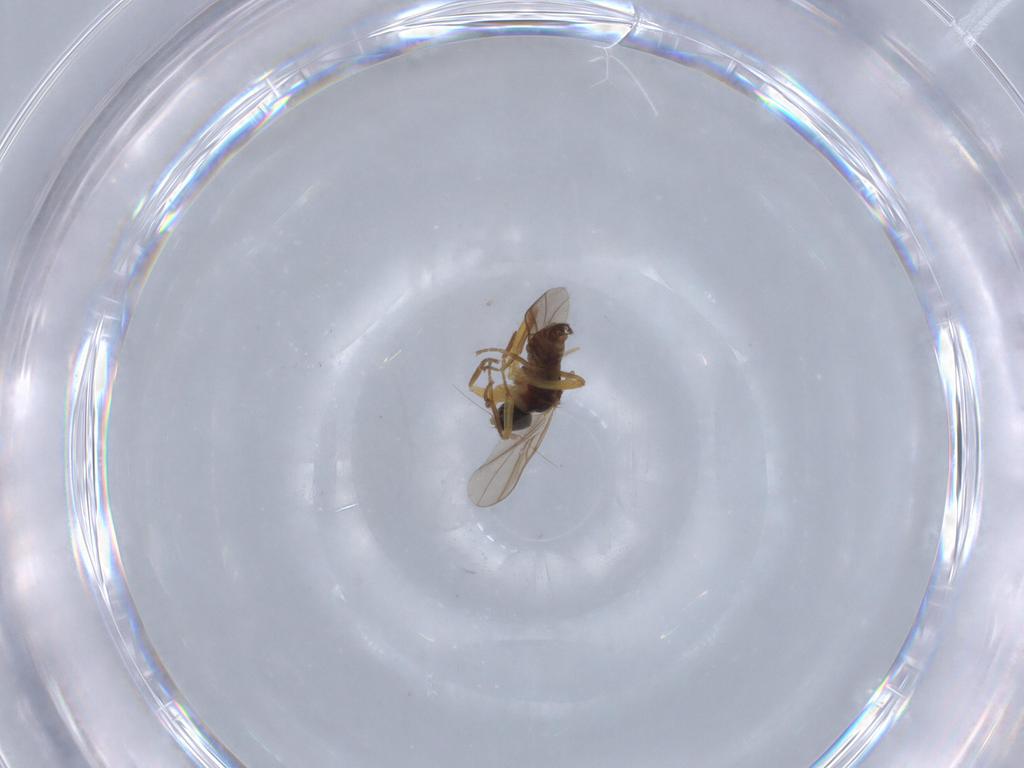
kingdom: Animalia
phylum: Arthropoda
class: Insecta
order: Diptera
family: Hybotidae
